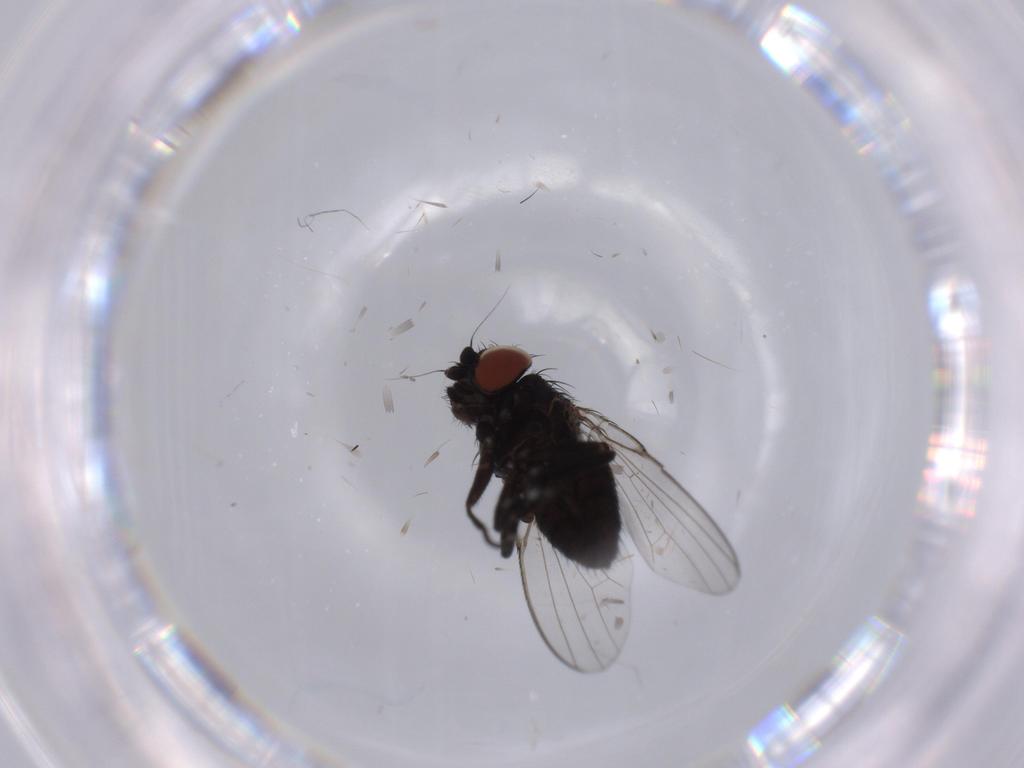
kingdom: Animalia
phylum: Arthropoda
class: Insecta
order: Diptera
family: Milichiidae
